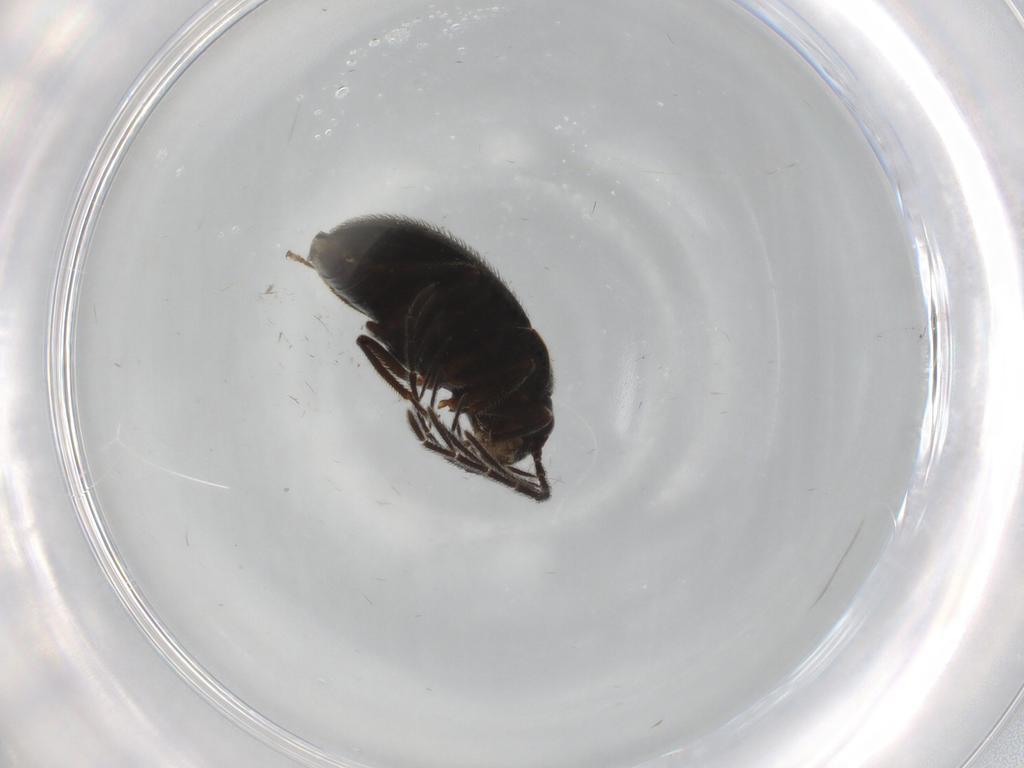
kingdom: Animalia
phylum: Arthropoda
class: Insecta
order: Coleoptera
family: Ptilodactylidae
